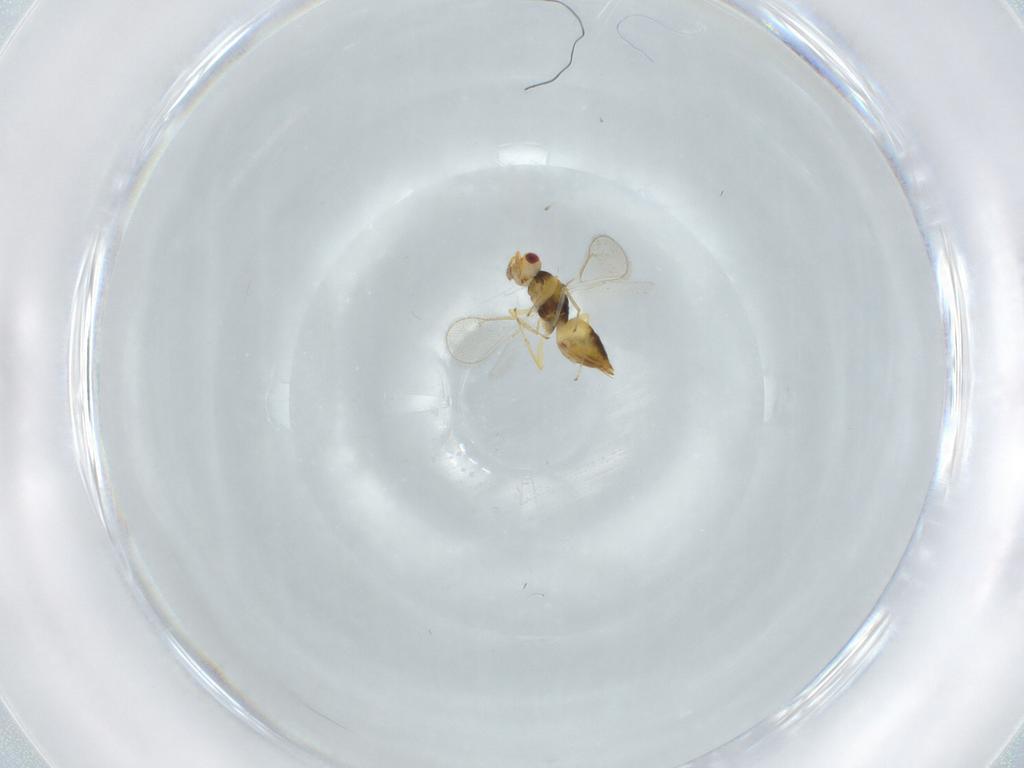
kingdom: Animalia
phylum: Arthropoda
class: Insecta
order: Hymenoptera
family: Eulophidae
